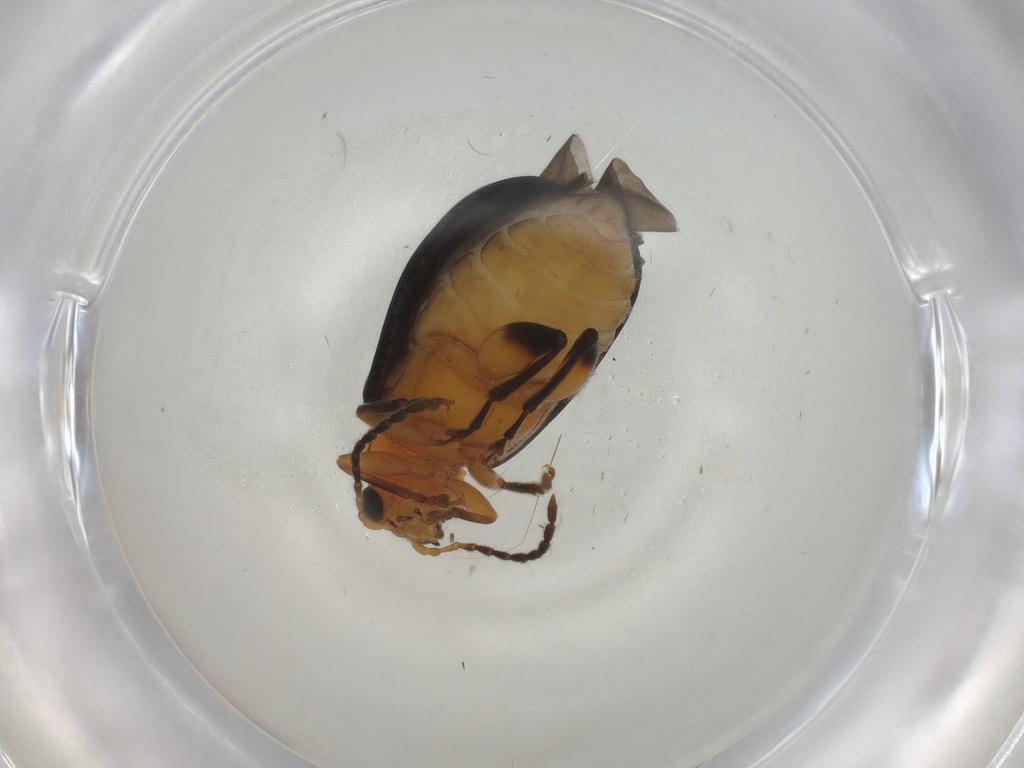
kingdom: Animalia
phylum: Arthropoda
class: Insecta
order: Coleoptera
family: Chrysomelidae
